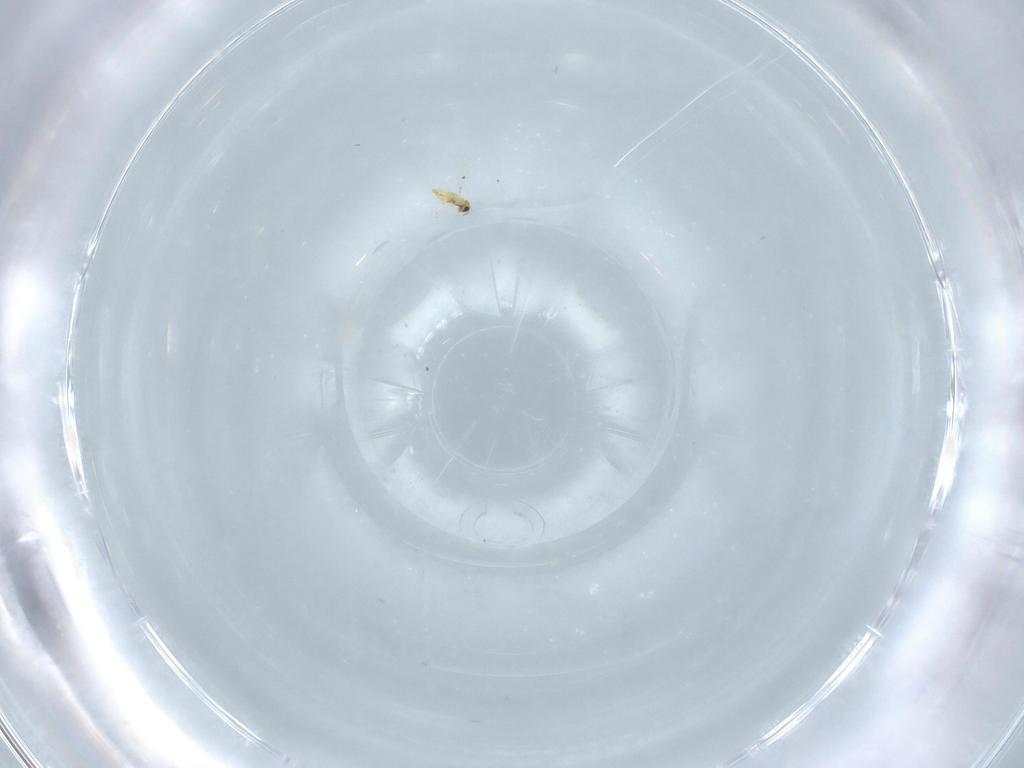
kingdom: Animalia
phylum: Arthropoda
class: Insecta
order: Hymenoptera
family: Trichogrammatidae
